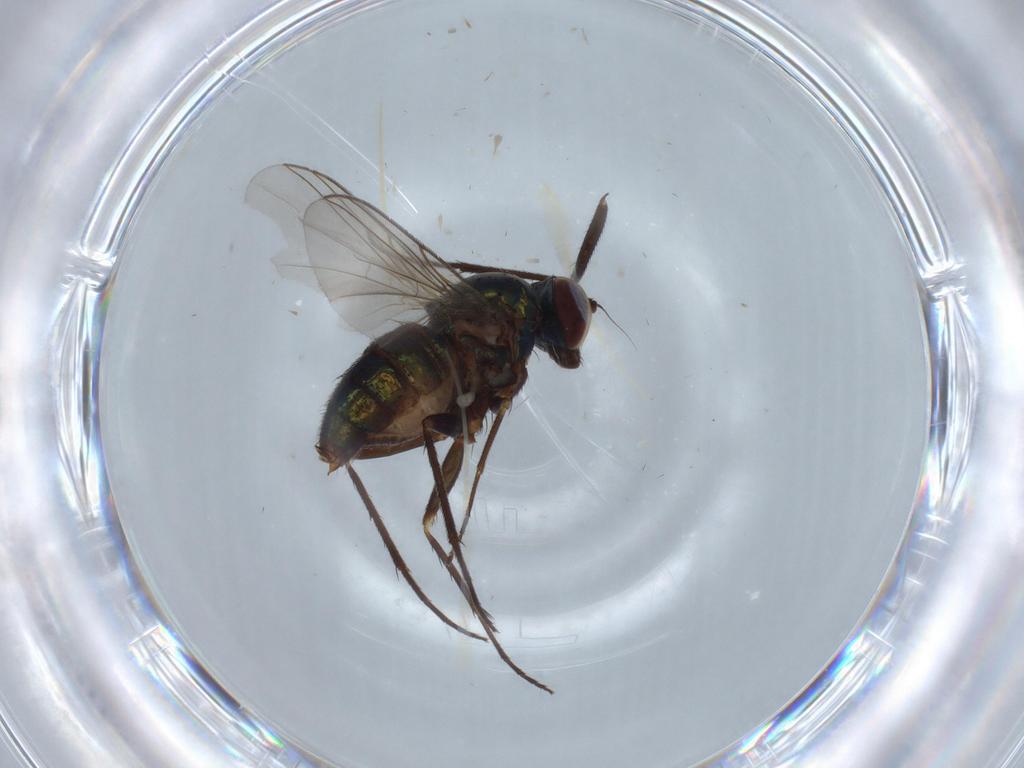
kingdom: Animalia
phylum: Arthropoda
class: Insecta
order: Diptera
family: Dolichopodidae
